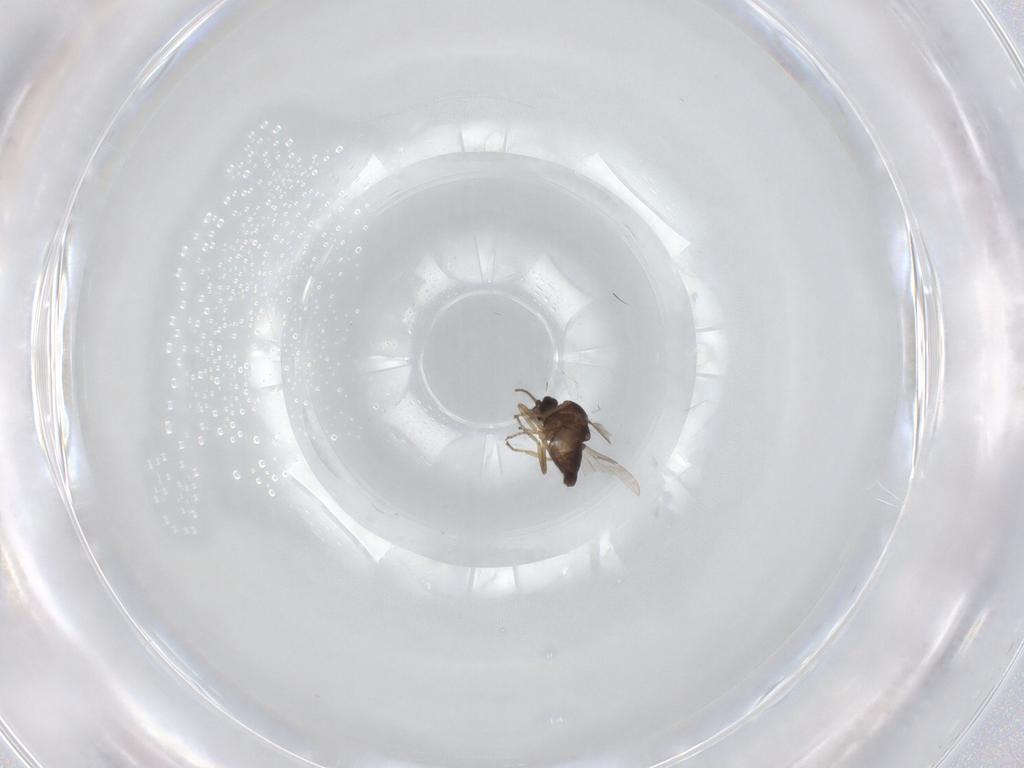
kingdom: Animalia
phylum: Arthropoda
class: Insecta
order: Diptera
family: Ceratopogonidae
